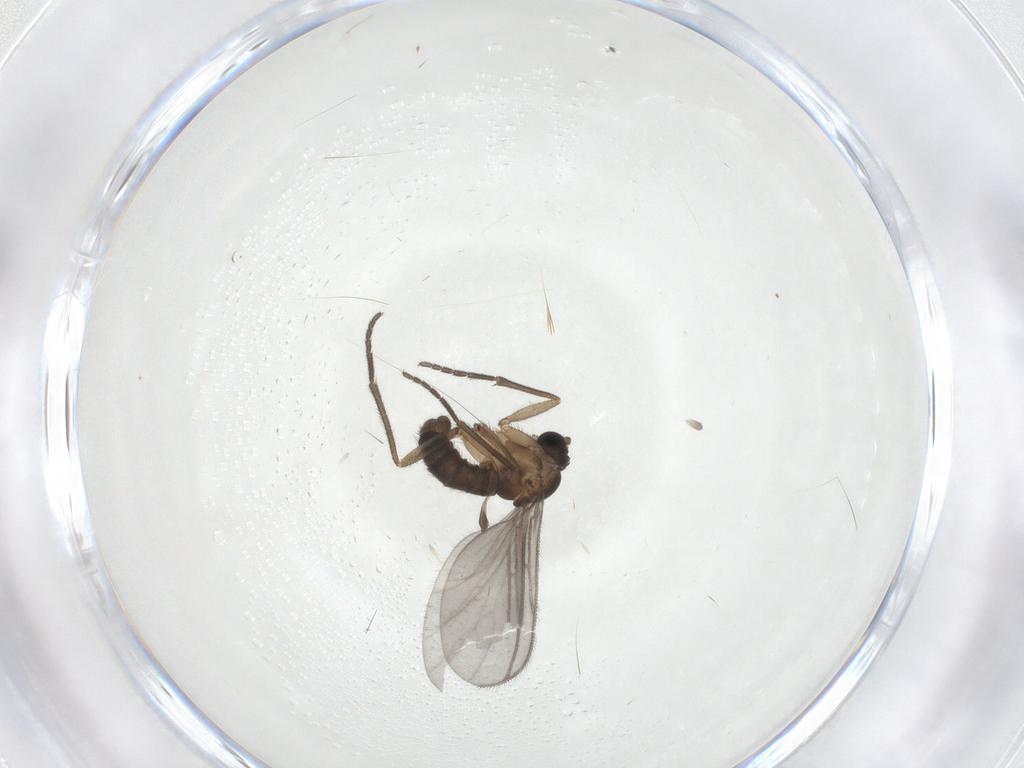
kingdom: Animalia
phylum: Arthropoda
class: Insecta
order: Diptera
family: Sciaridae
